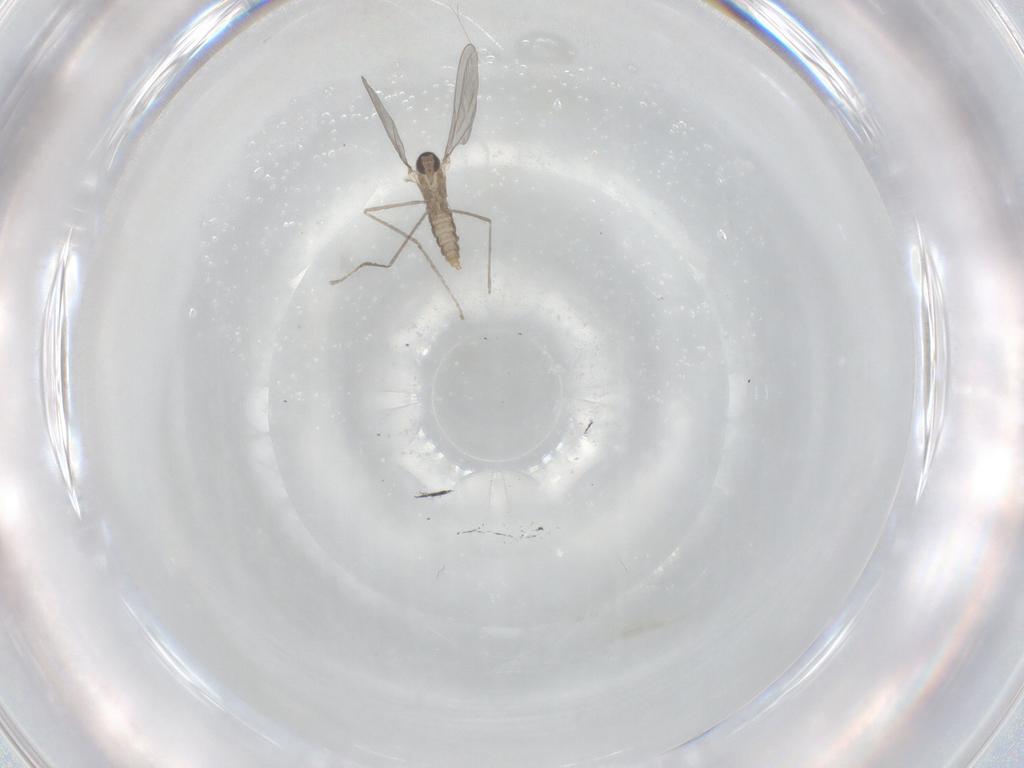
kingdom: Animalia
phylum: Arthropoda
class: Insecta
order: Diptera
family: Cecidomyiidae
